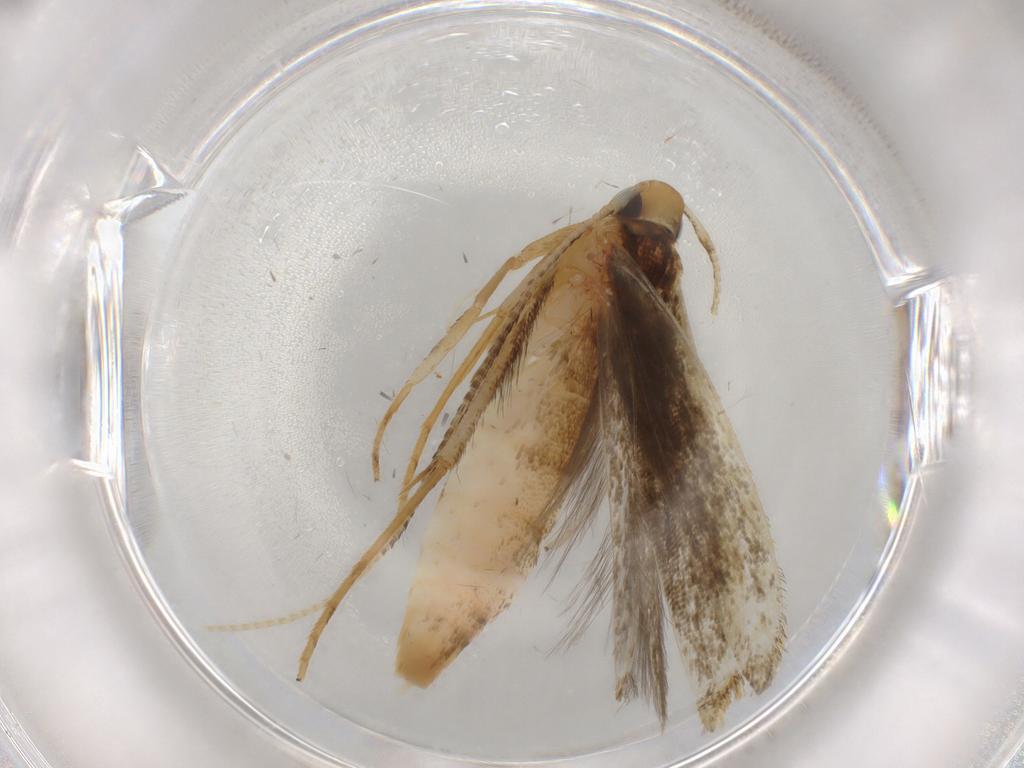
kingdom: Animalia
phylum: Arthropoda
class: Insecta
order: Lepidoptera
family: Pterolonchidae
